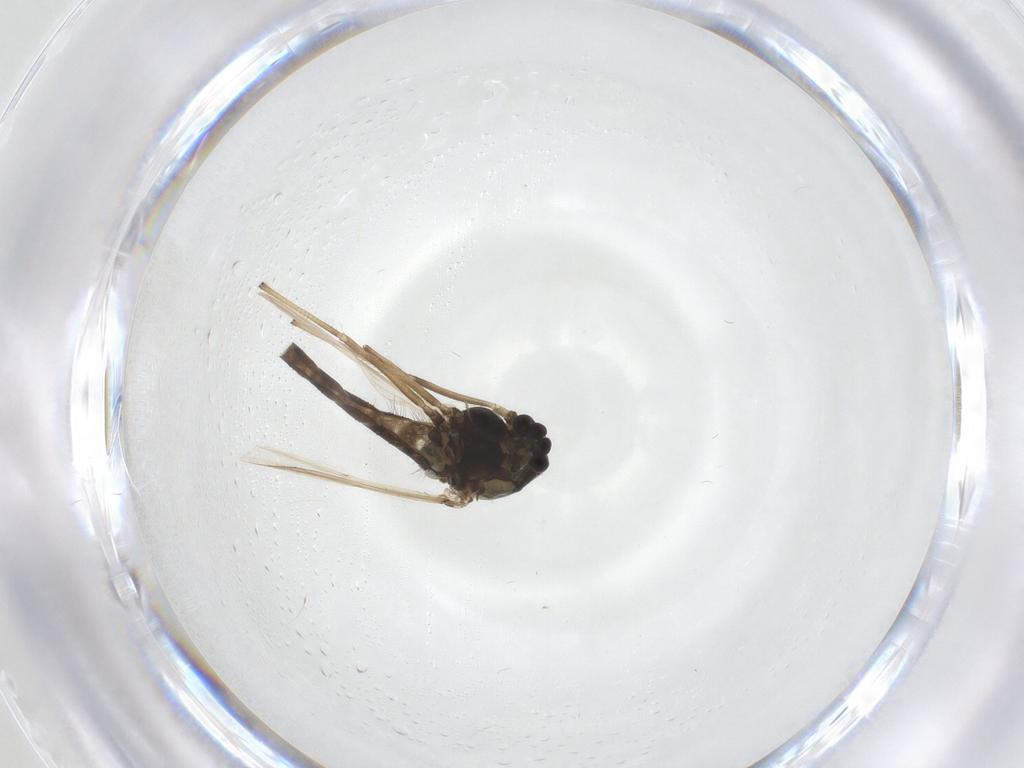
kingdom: Animalia
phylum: Arthropoda
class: Insecta
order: Diptera
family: Chironomidae
